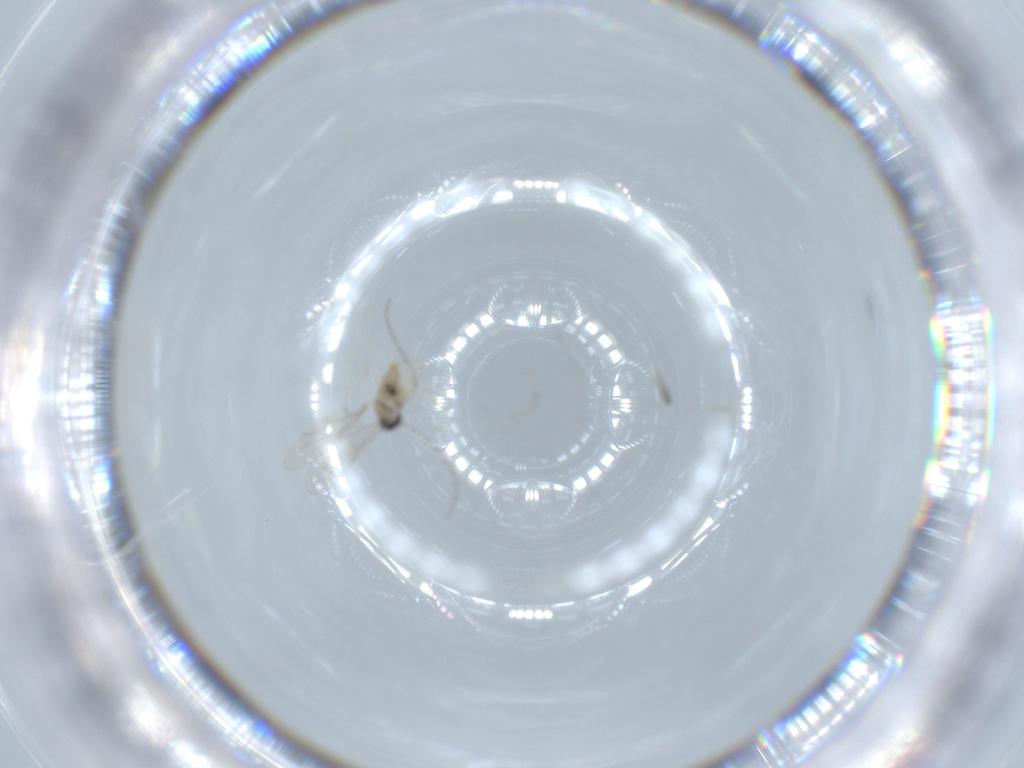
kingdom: Animalia
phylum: Arthropoda
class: Insecta
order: Diptera
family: Cecidomyiidae
